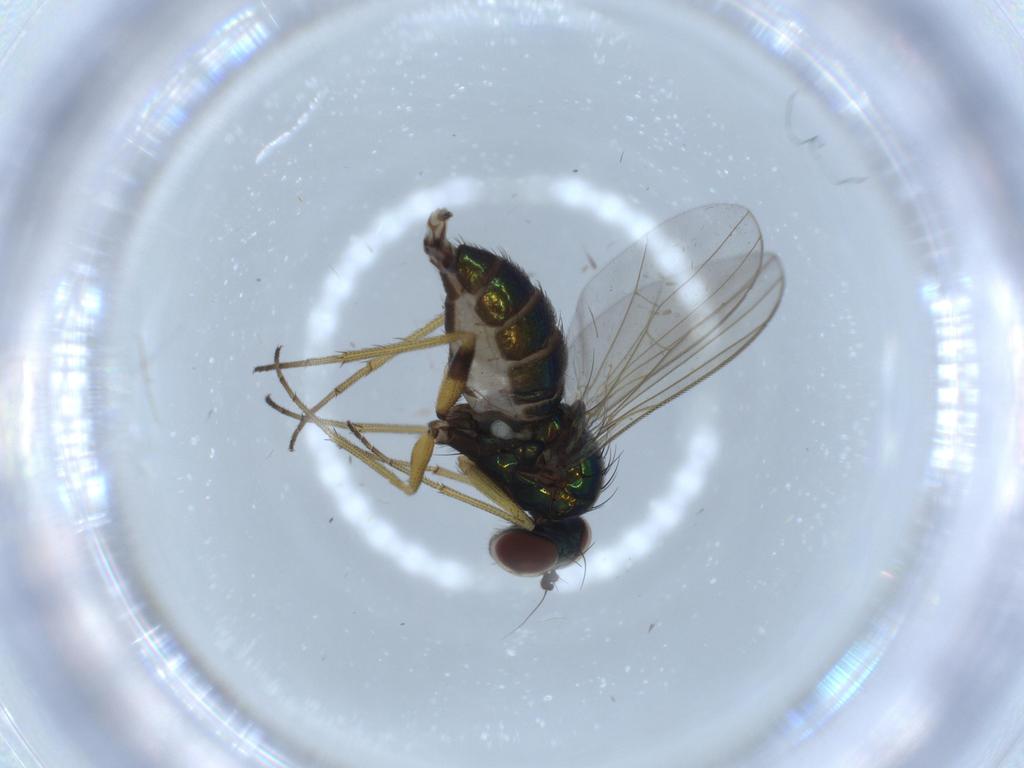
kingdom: Animalia
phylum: Arthropoda
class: Insecta
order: Diptera
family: Dolichopodidae
